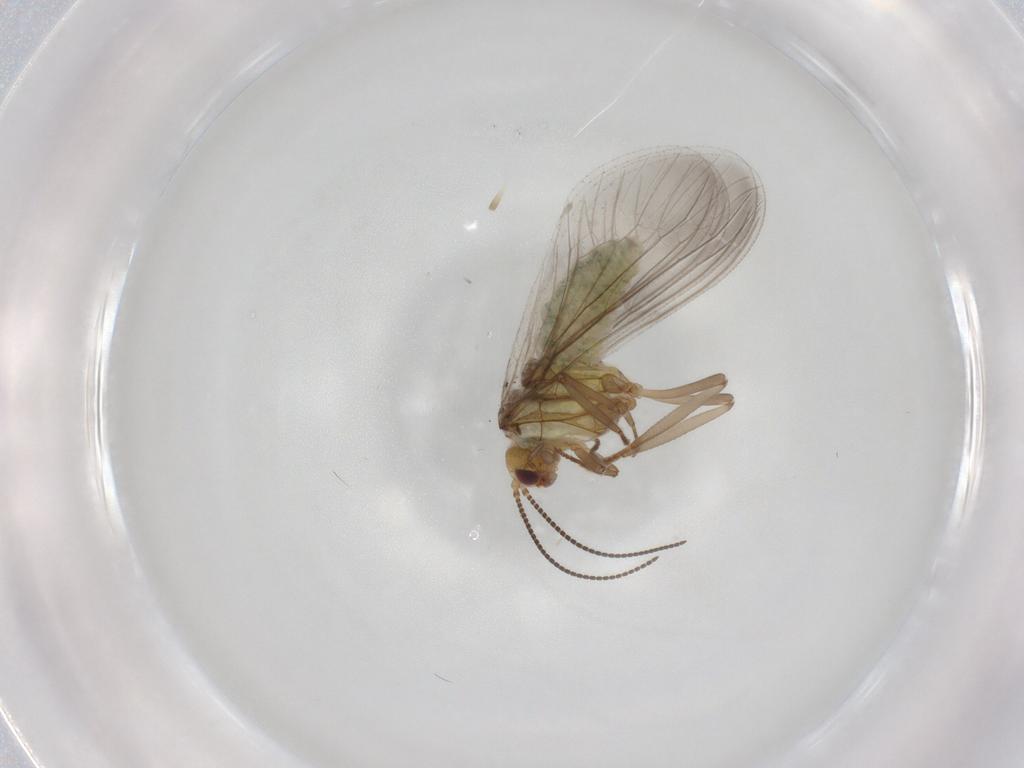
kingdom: Animalia
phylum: Arthropoda
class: Insecta
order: Neuroptera
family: Coniopterygidae
